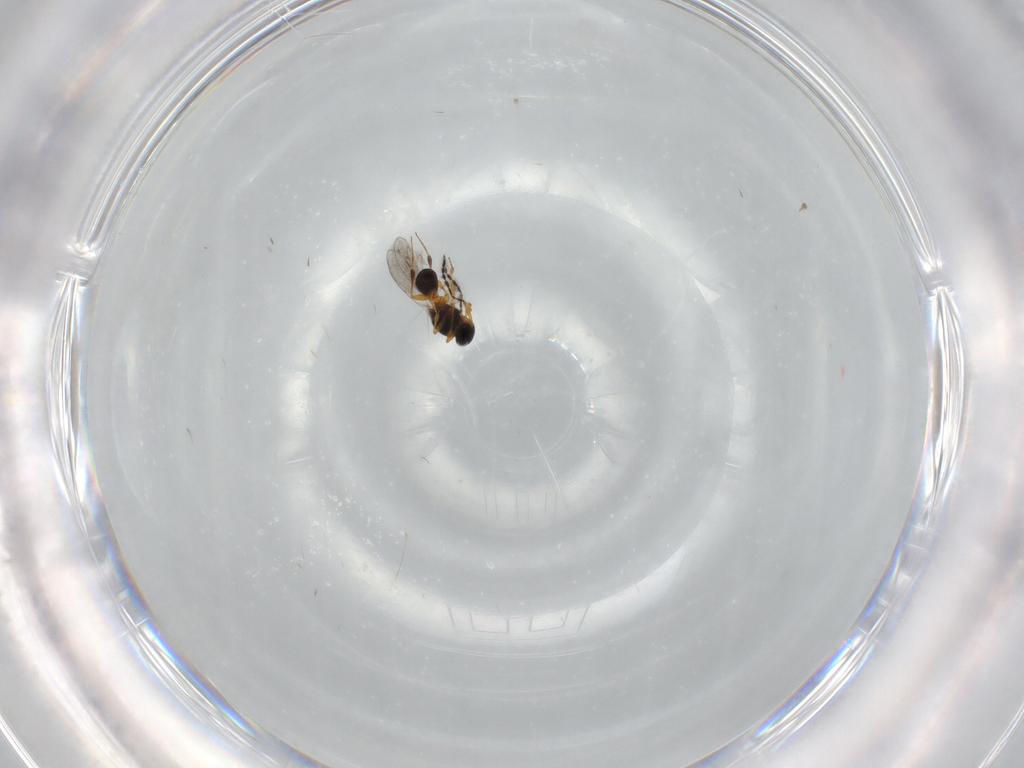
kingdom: Animalia
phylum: Arthropoda
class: Insecta
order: Hymenoptera
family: Platygastridae
